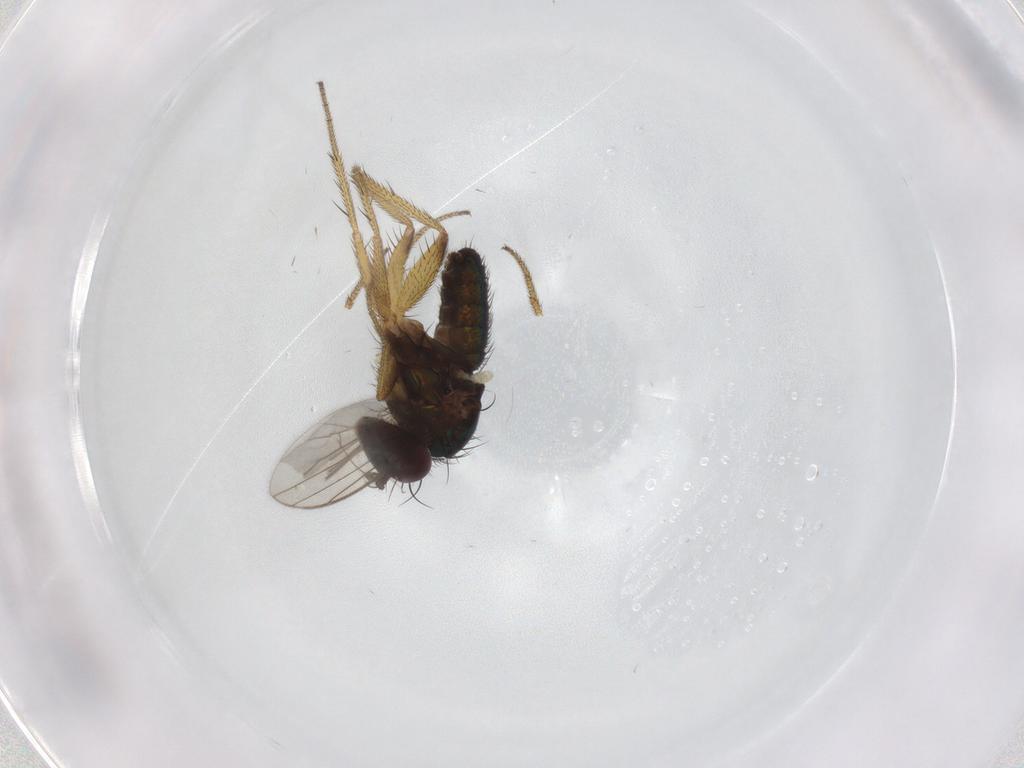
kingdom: Animalia
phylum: Arthropoda
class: Insecta
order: Diptera
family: Dolichopodidae
